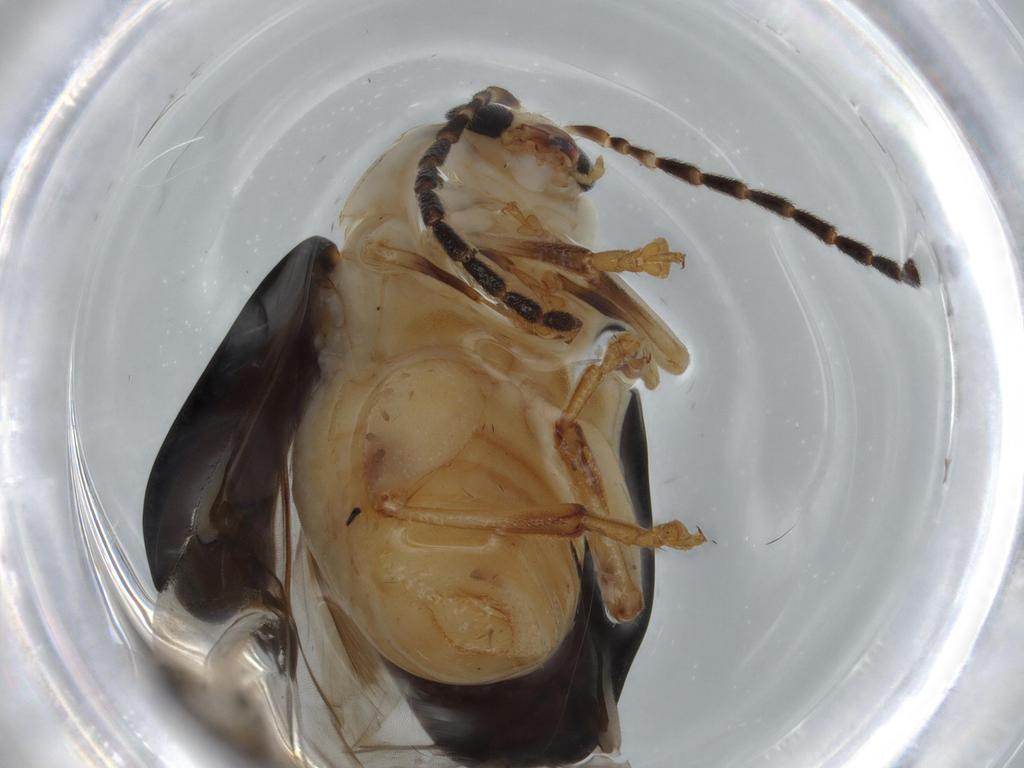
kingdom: Animalia
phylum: Arthropoda
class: Insecta
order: Coleoptera
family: Chrysomelidae
